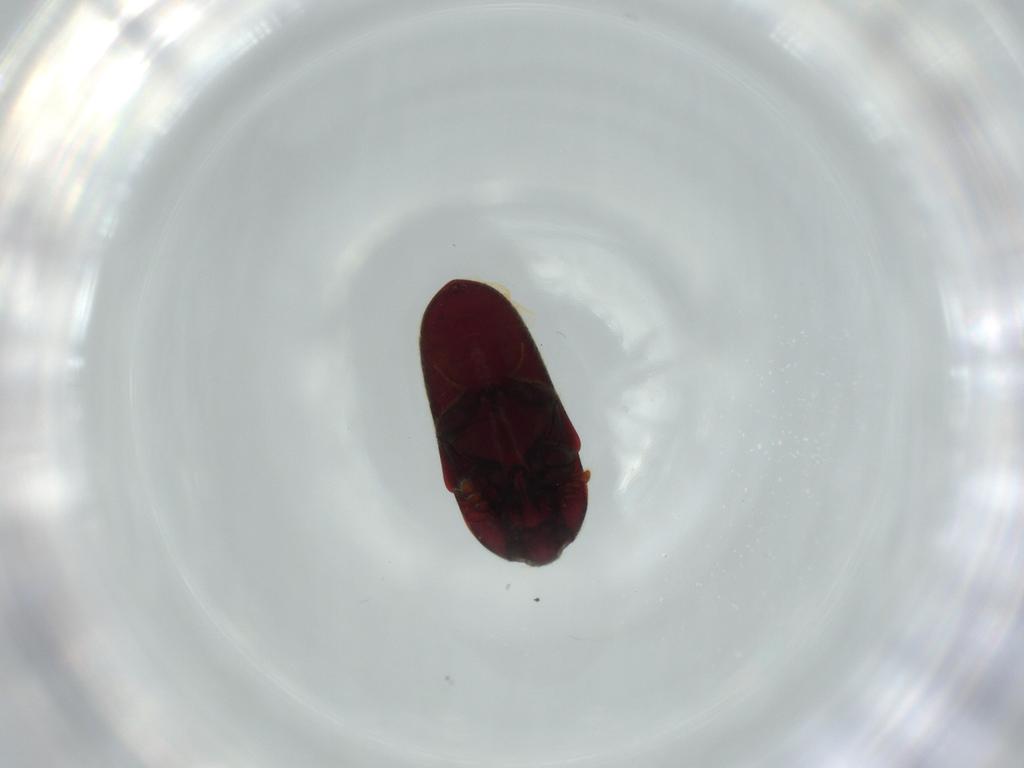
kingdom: Animalia
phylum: Arthropoda
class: Insecta
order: Coleoptera
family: Throscidae
